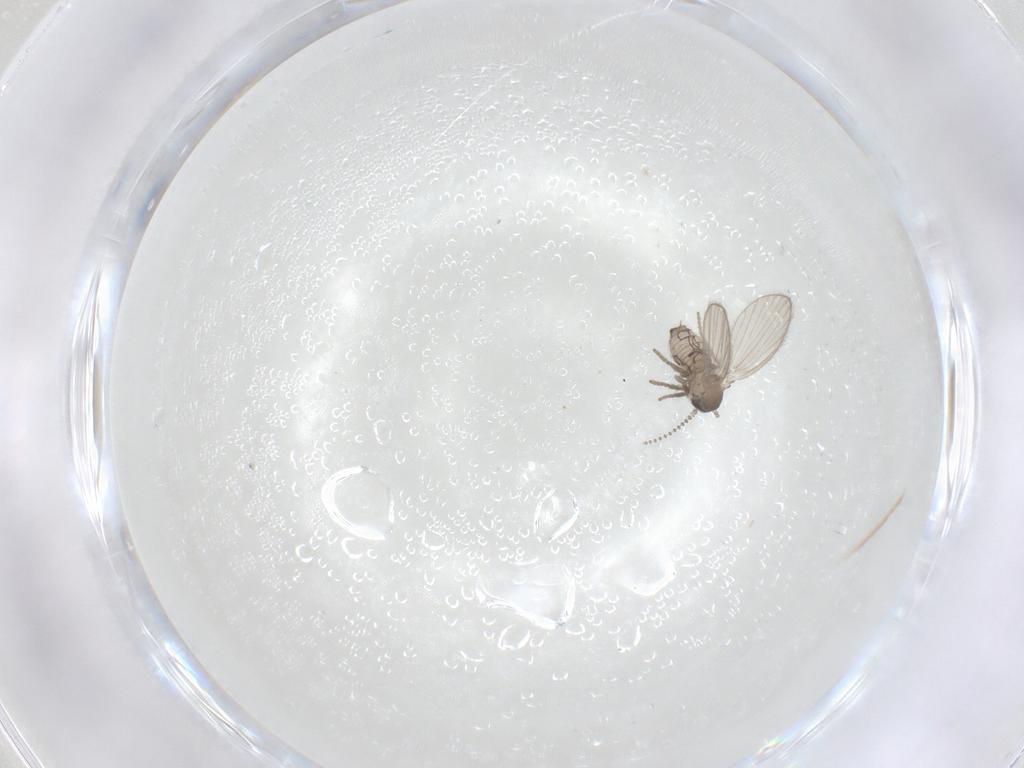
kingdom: Animalia
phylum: Arthropoda
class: Insecta
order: Diptera
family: Psychodidae
